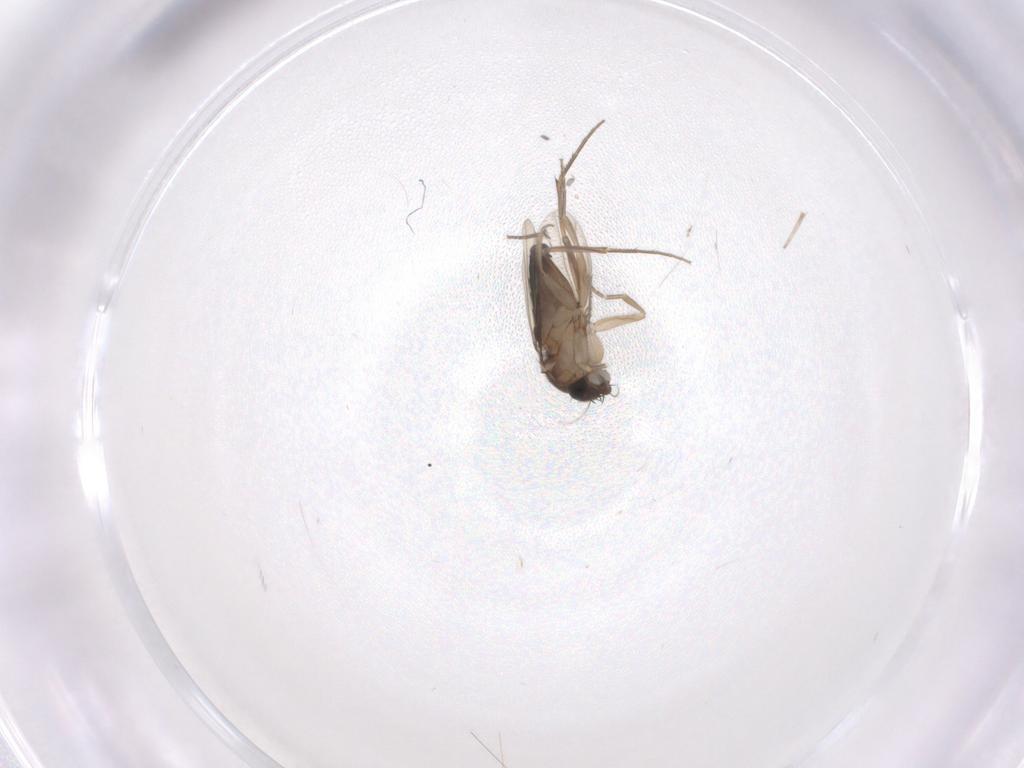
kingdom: Animalia
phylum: Arthropoda
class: Insecta
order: Diptera
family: Phoridae
